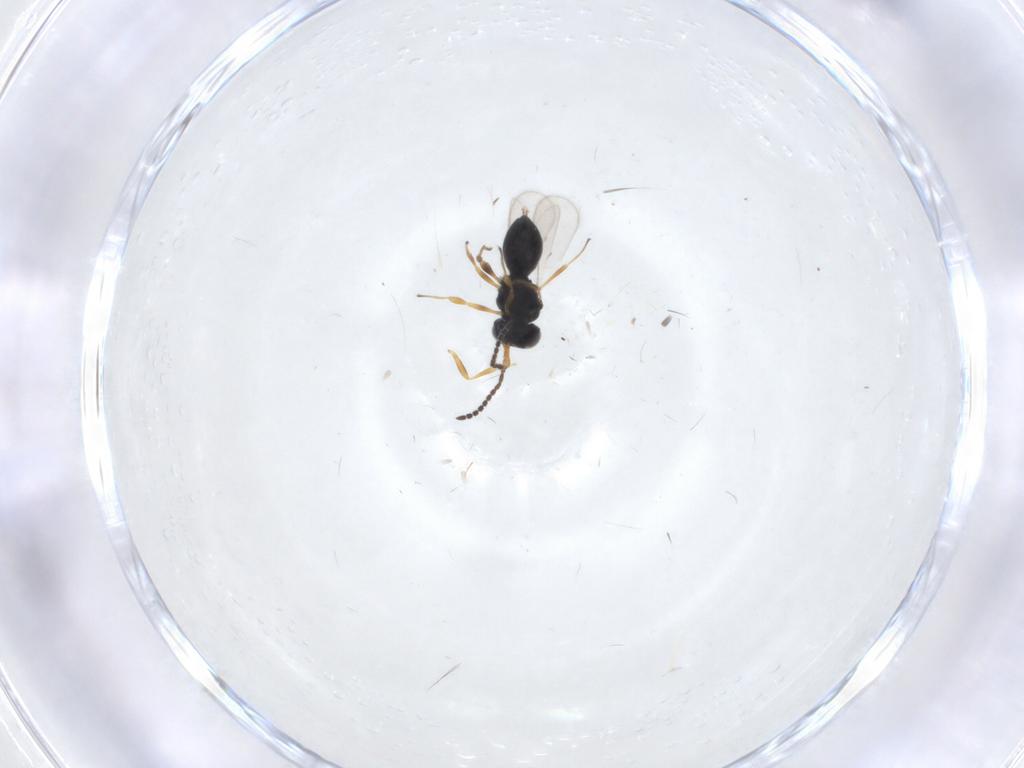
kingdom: Animalia
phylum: Arthropoda
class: Insecta
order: Hymenoptera
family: Scelionidae
